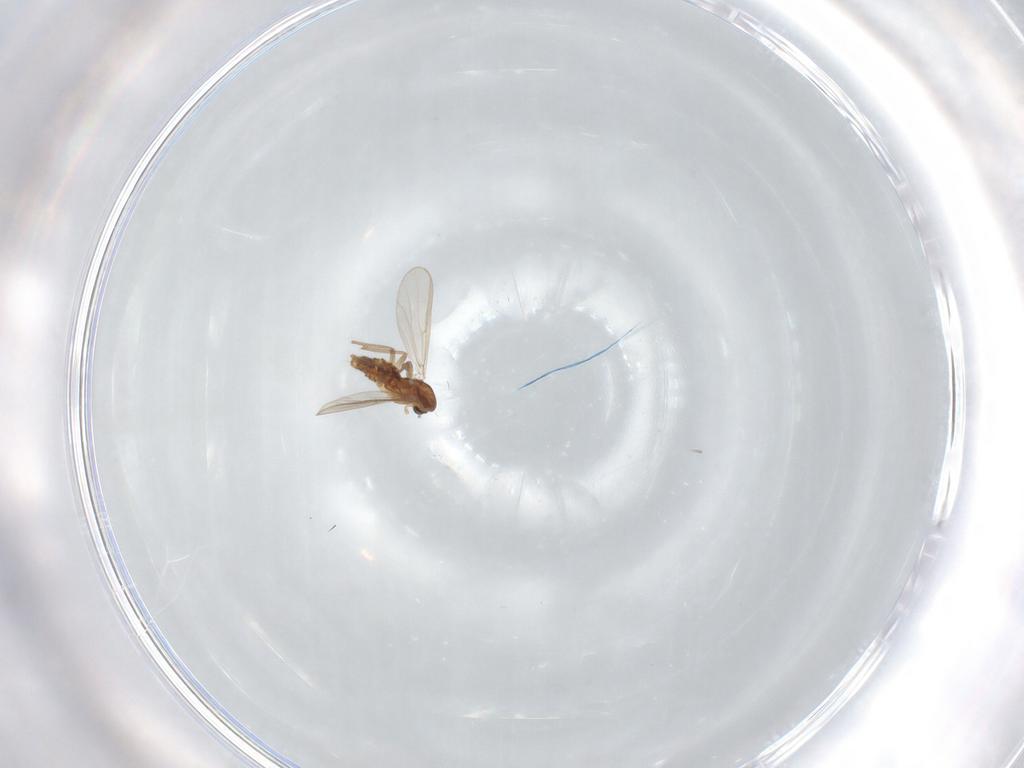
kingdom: Animalia
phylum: Arthropoda
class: Insecta
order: Diptera
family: Chironomidae
